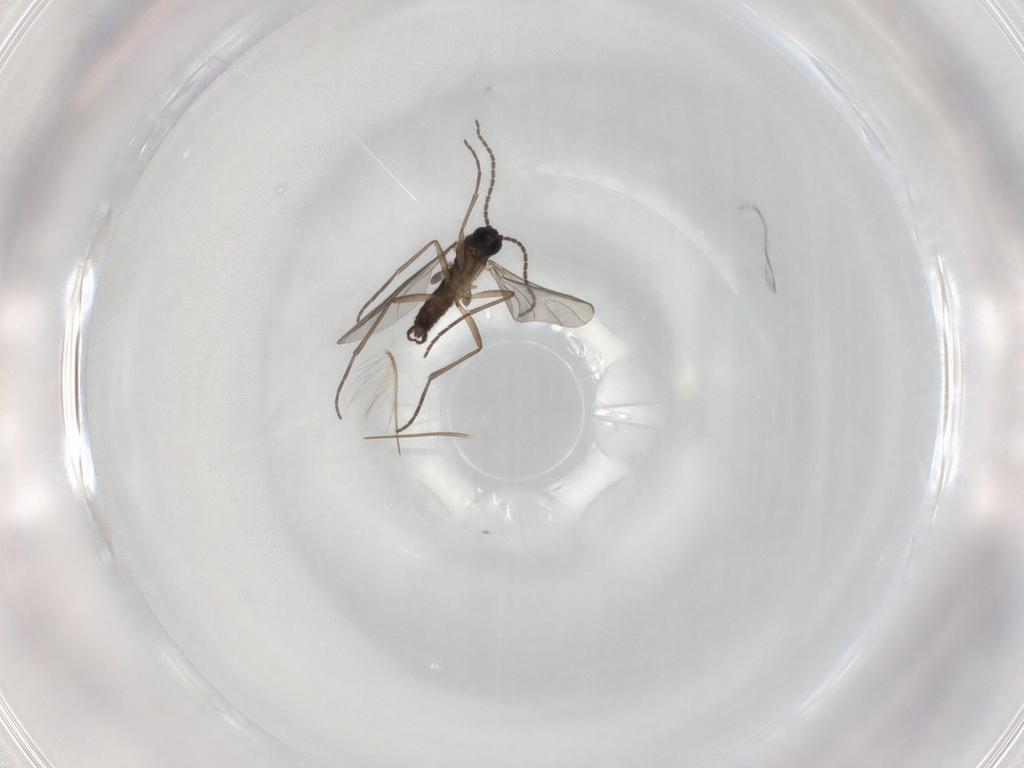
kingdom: Animalia
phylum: Arthropoda
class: Insecta
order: Diptera
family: Sciaridae
